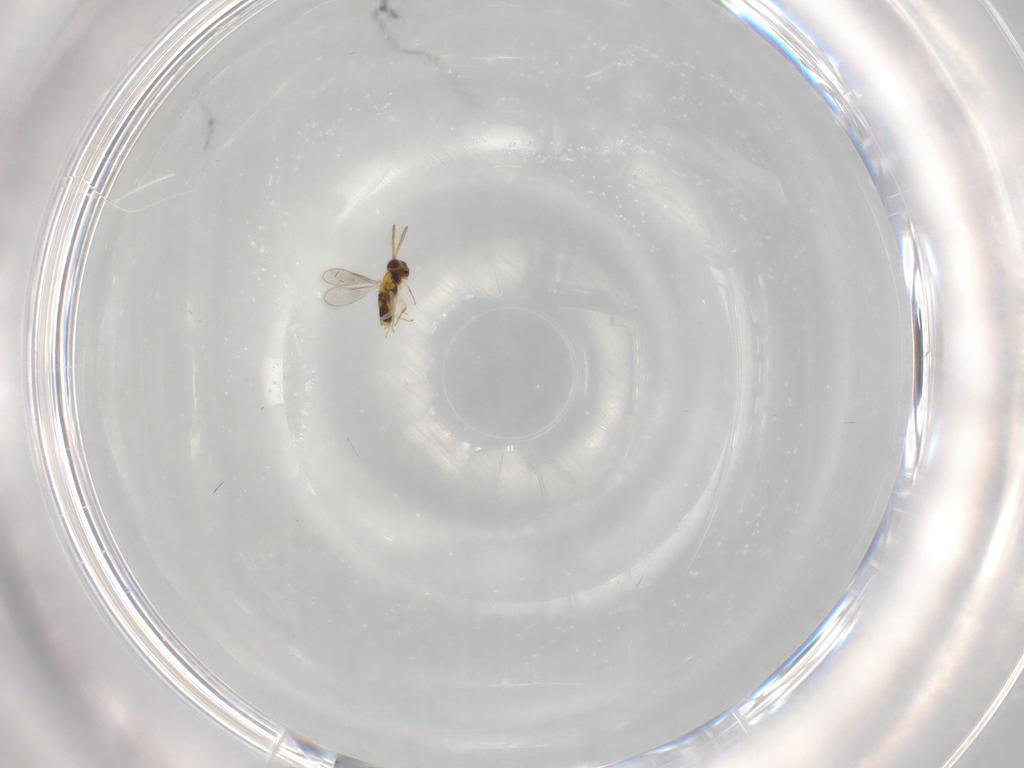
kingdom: Animalia
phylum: Arthropoda
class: Insecta
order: Hymenoptera
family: Aphelinidae
